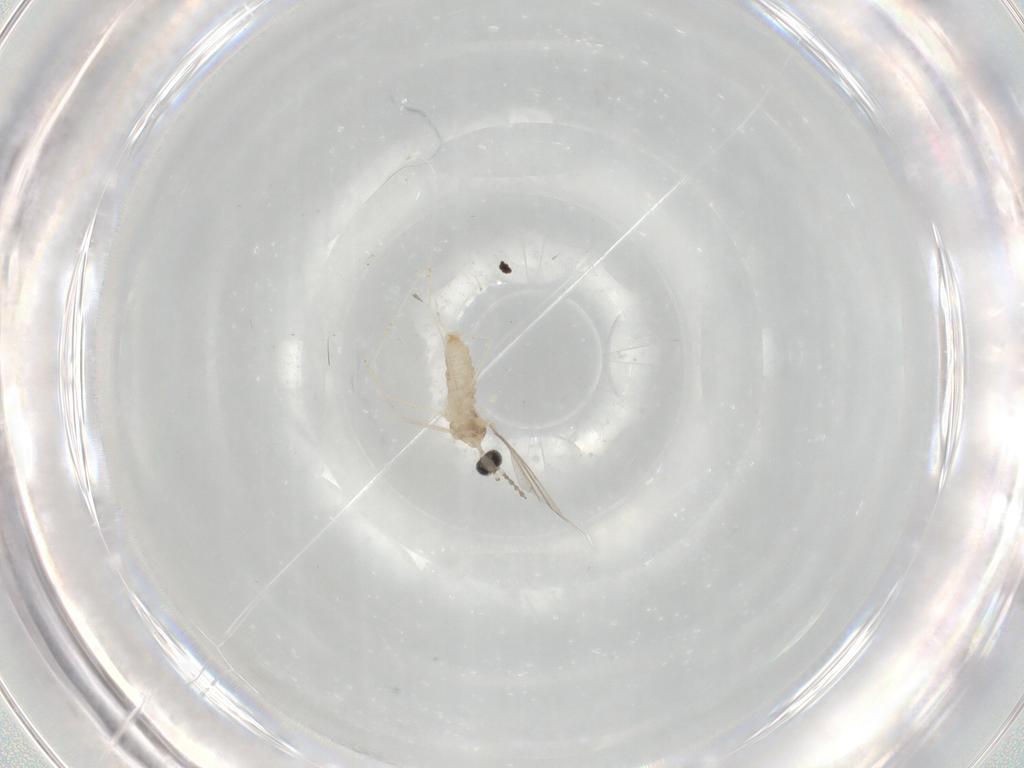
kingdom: Animalia
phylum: Arthropoda
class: Insecta
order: Diptera
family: Cecidomyiidae
